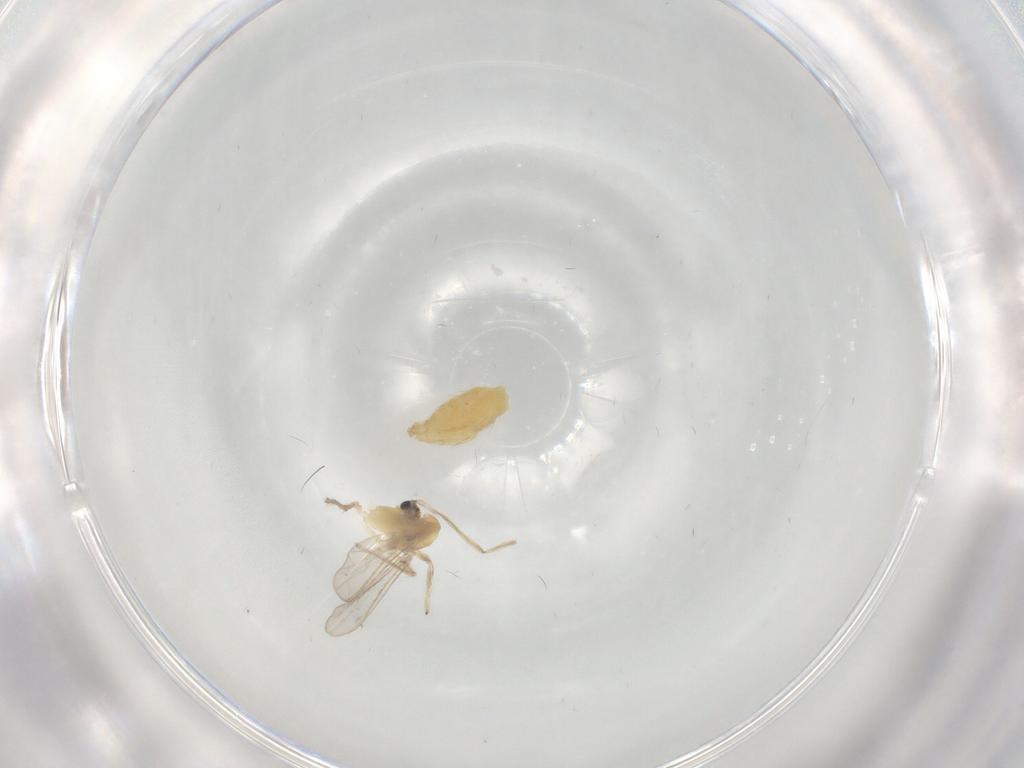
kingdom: Animalia
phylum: Arthropoda
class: Insecta
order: Diptera
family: Chironomidae
